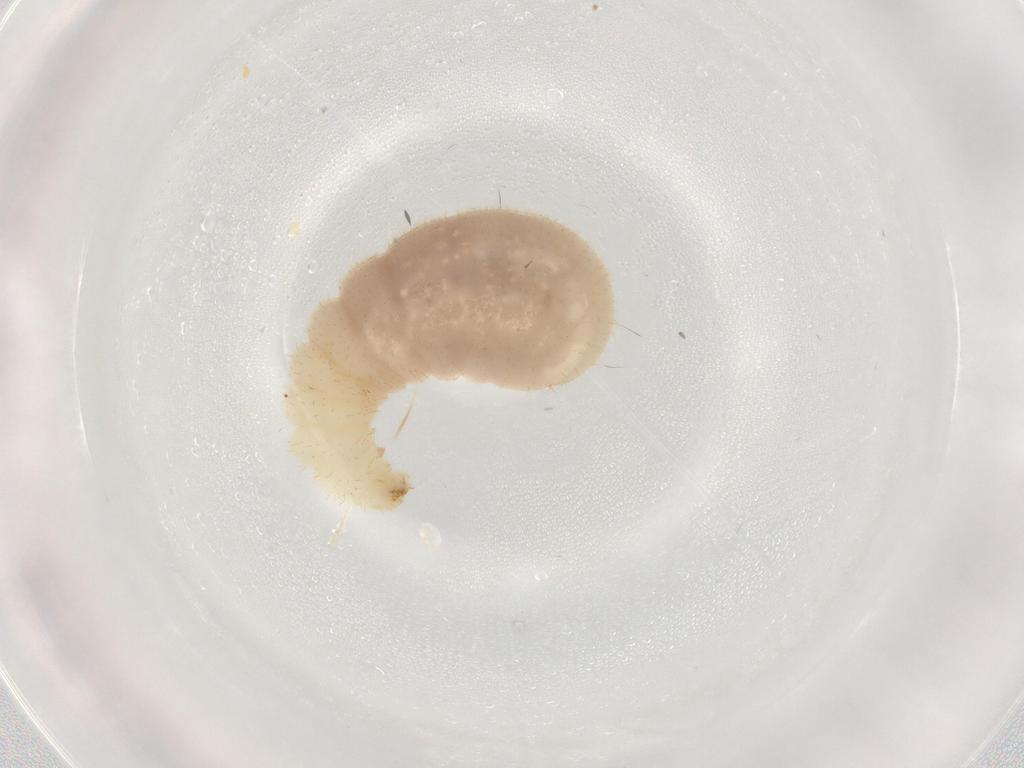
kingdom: Animalia
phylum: Arthropoda
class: Insecta
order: Hymenoptera
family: Formicidae
